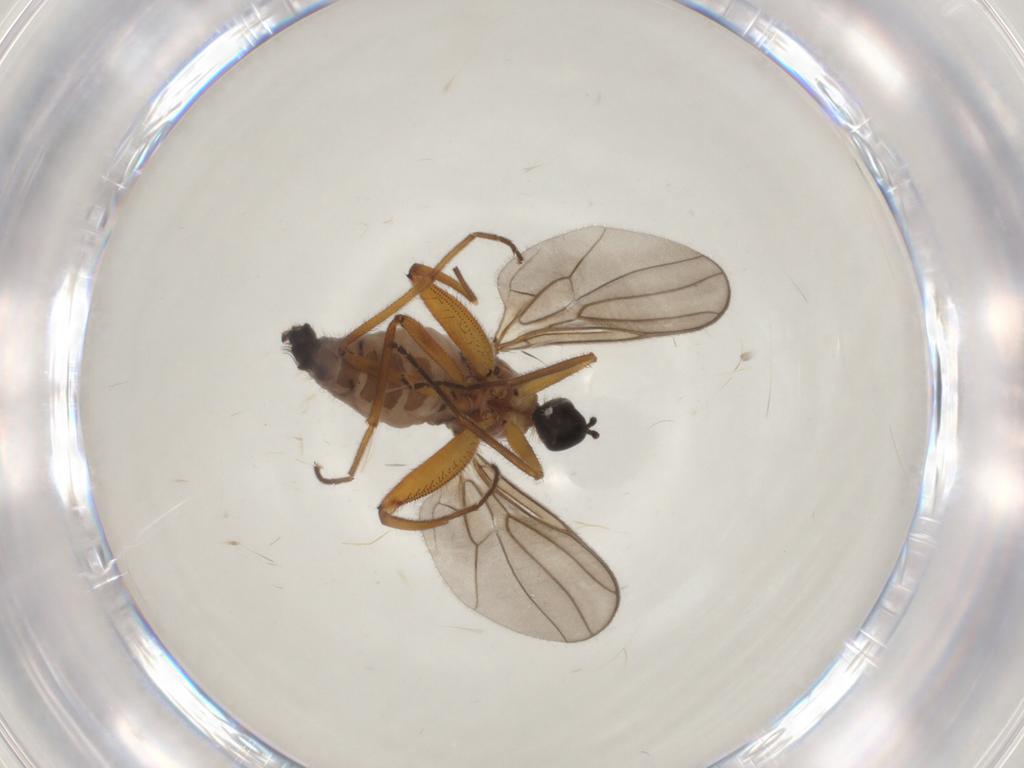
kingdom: Animalia
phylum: Arthropoda
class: Insecta
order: Diptera
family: Hybotidae
